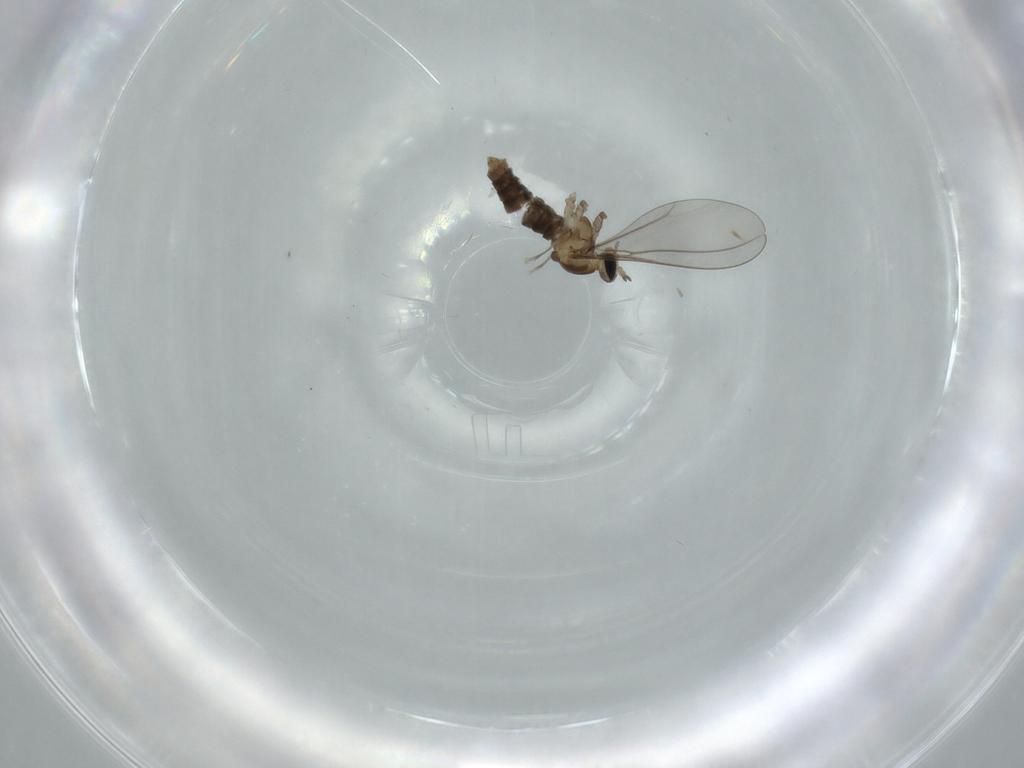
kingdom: Animalia
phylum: Arthropoda
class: Insecta
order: Diptera
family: Cecidomyiidae
